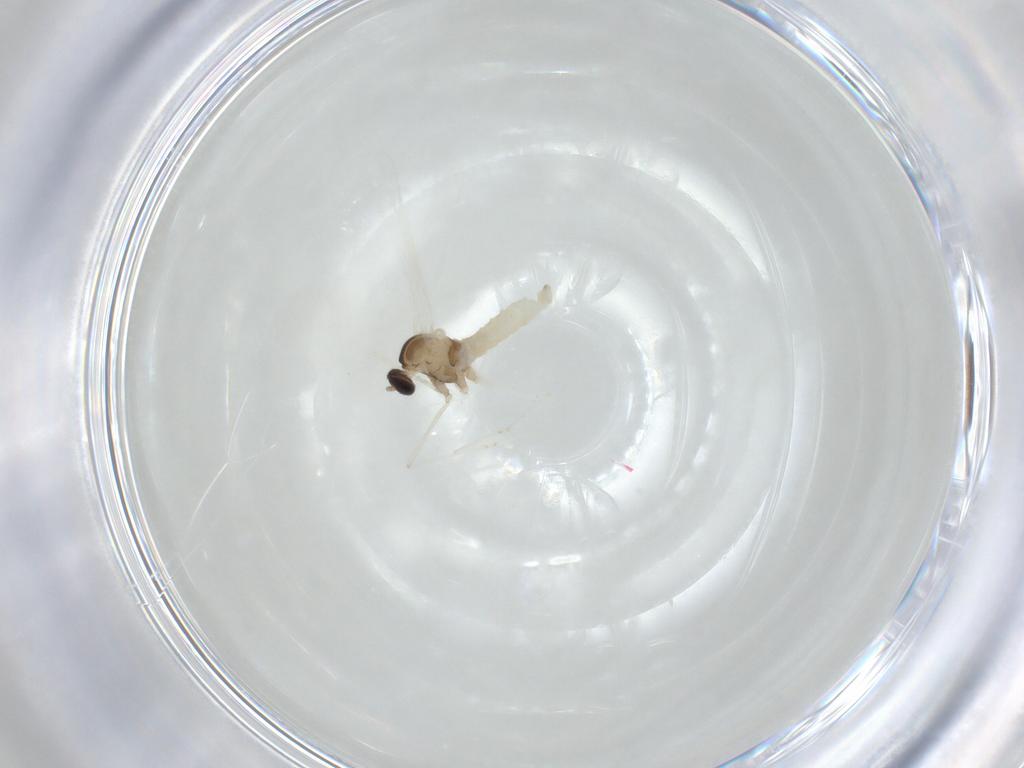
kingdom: Animalia
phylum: Arthropoda
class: Insecta
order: Diptera
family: Cecidomyiidae
